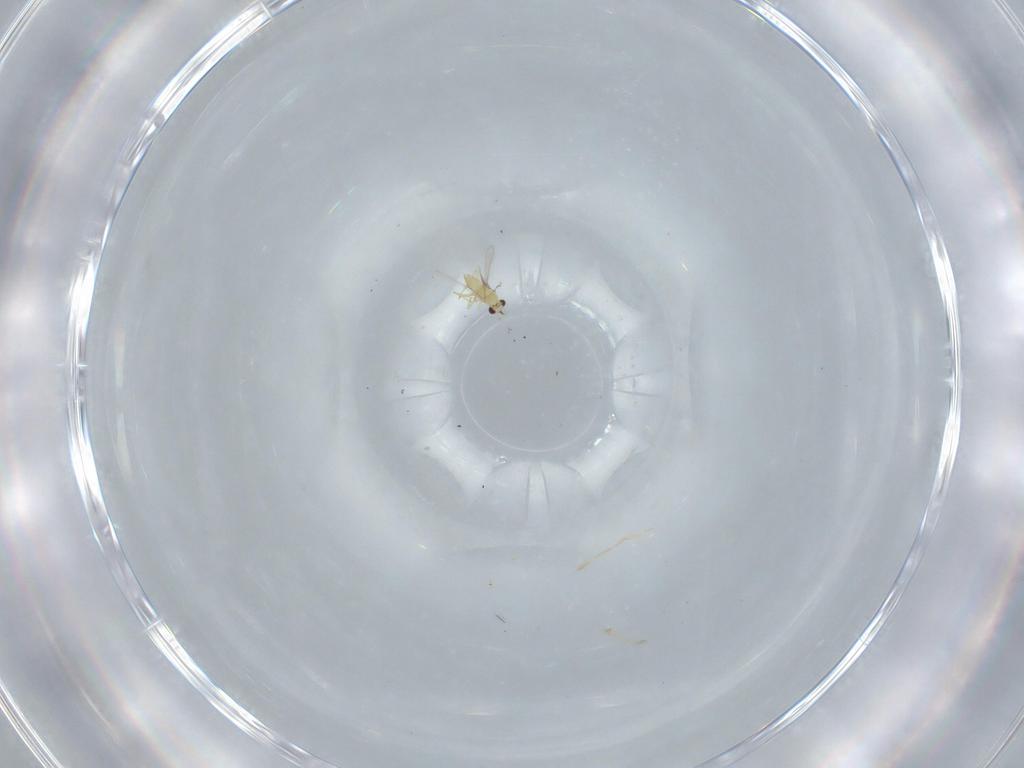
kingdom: Animalia
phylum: Arthropoda
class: Insecta
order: Hymenoptera
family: Mymaridae
